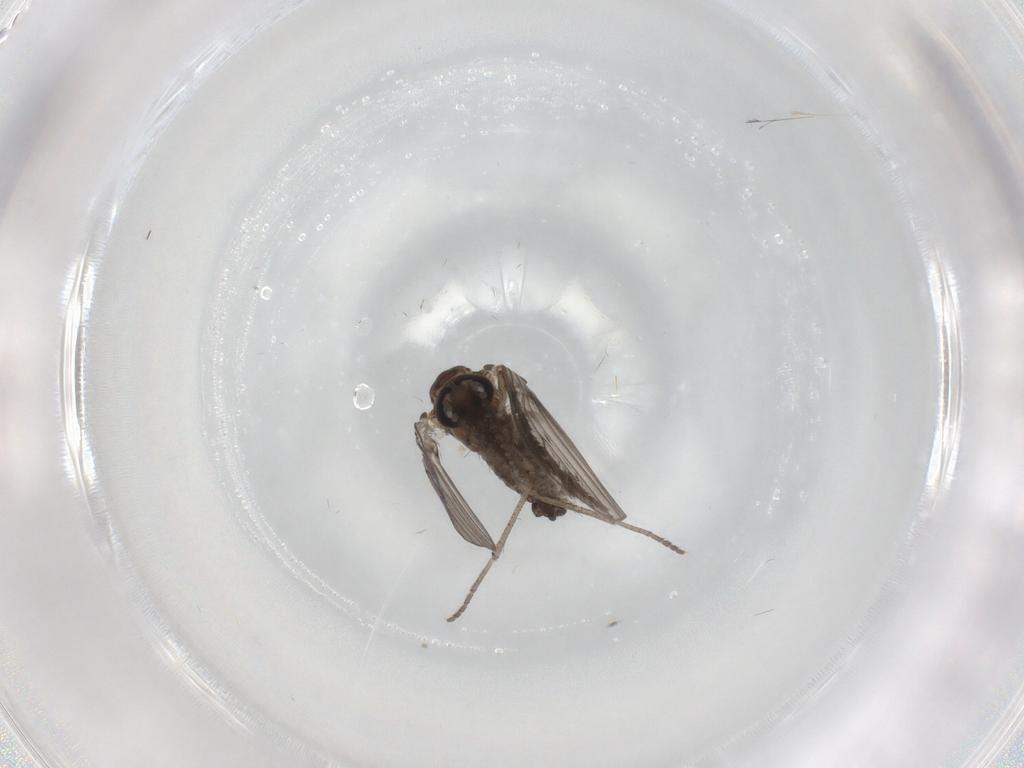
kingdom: Animalia
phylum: Arthropoda
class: Insecta
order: Diptera
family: Psychodidae
